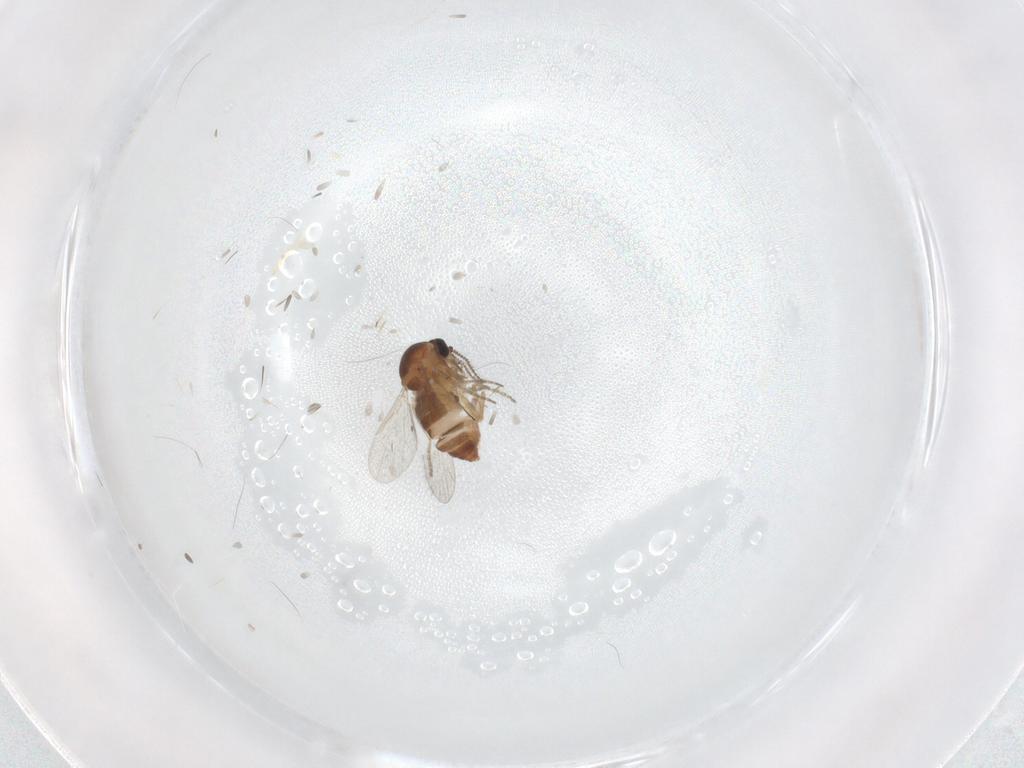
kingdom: Animalia
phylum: Arthropoda
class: Insecta
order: Diptera
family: Ceratopogonidae
